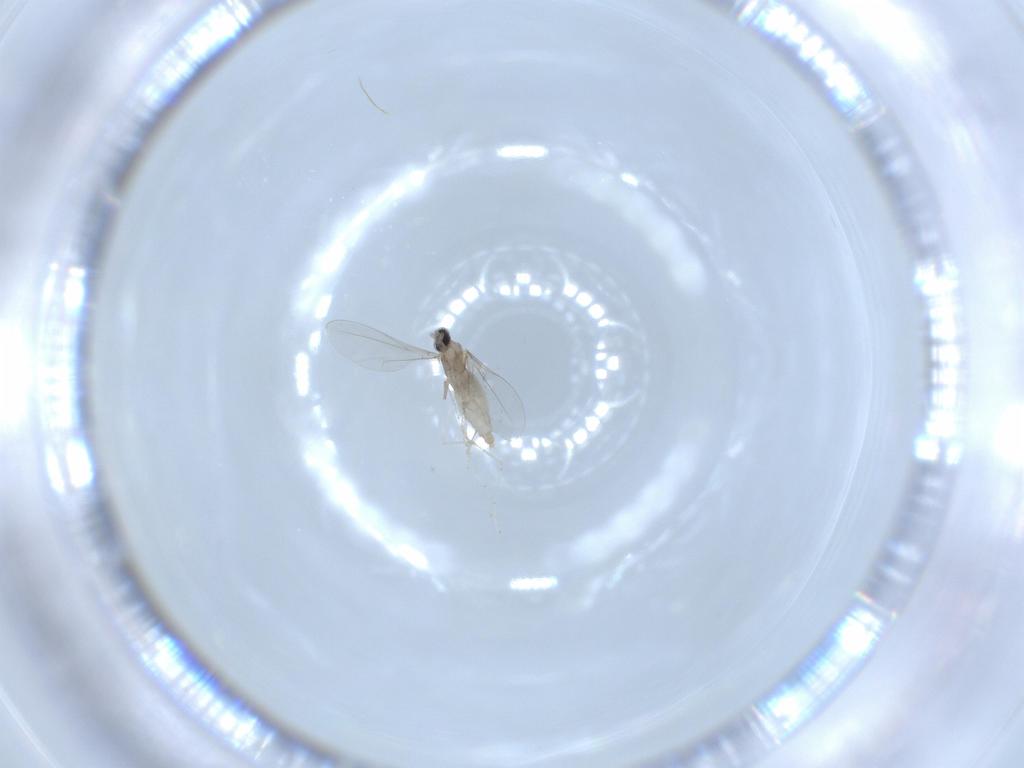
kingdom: Animalia
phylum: Arthropoda
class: Insecta
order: Diptera
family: Cecidomyiidae
